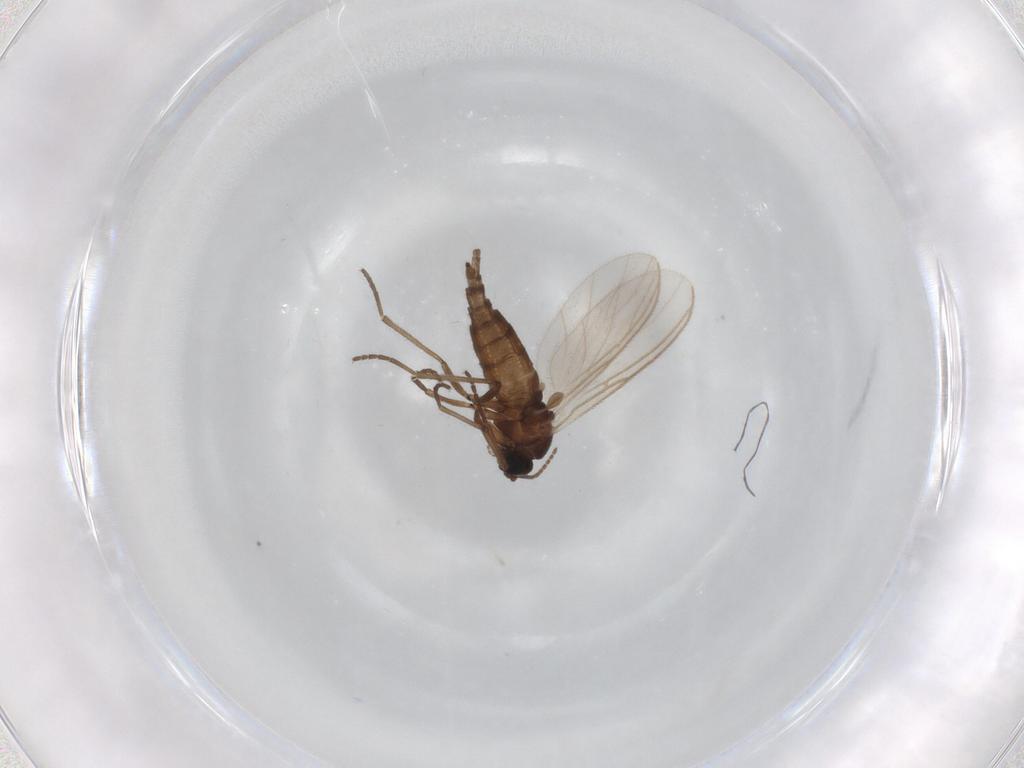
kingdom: Animalia
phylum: Arthropoda
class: Insecta
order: Diptera
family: Sciaridae
